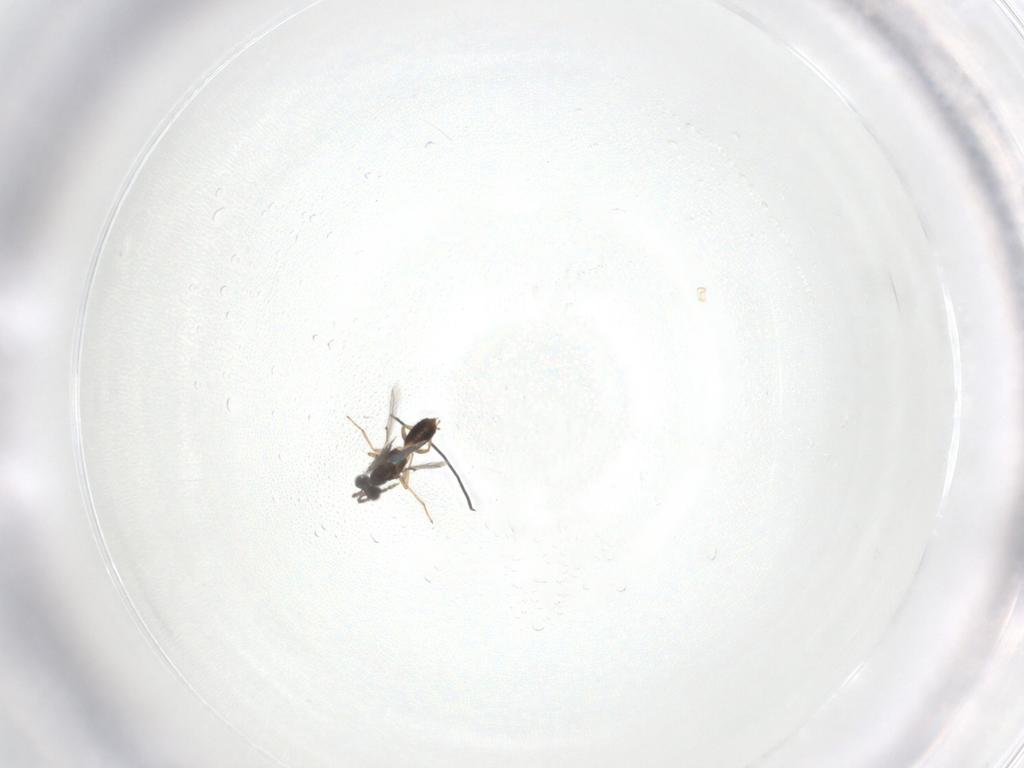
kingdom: Animalia
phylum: Arthropoda
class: Insecta
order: Hymenoptera
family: Eulophidae
